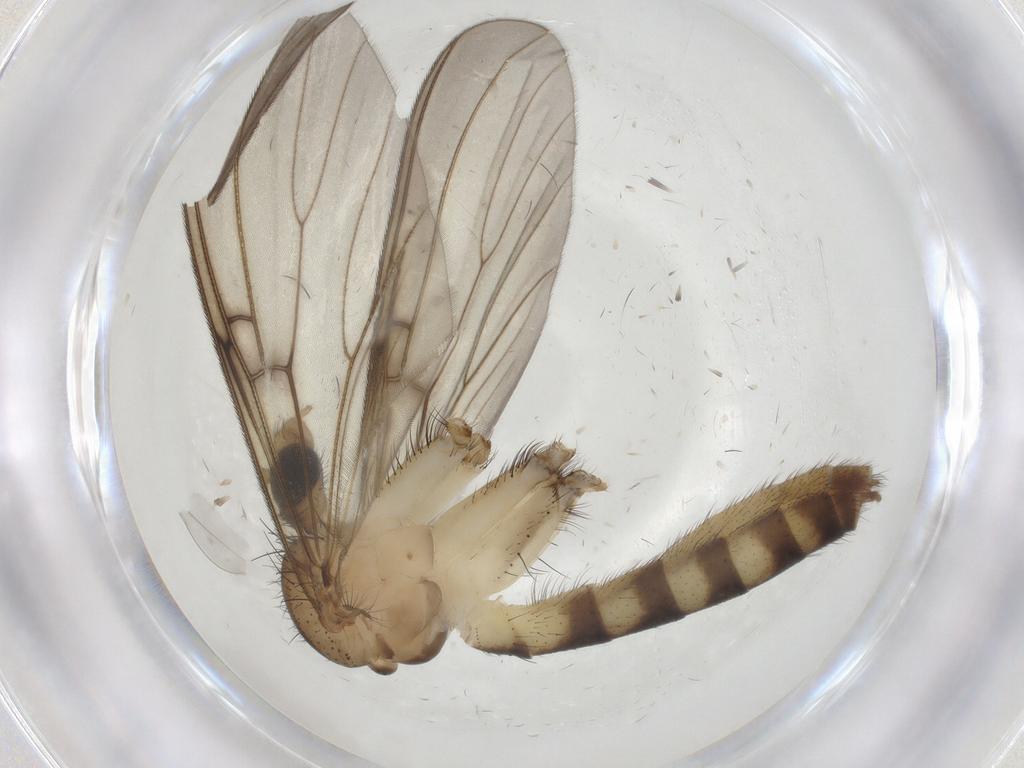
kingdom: Animalia
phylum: Arthropoda
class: Insecta
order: Diptera
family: Mycetophilidae
